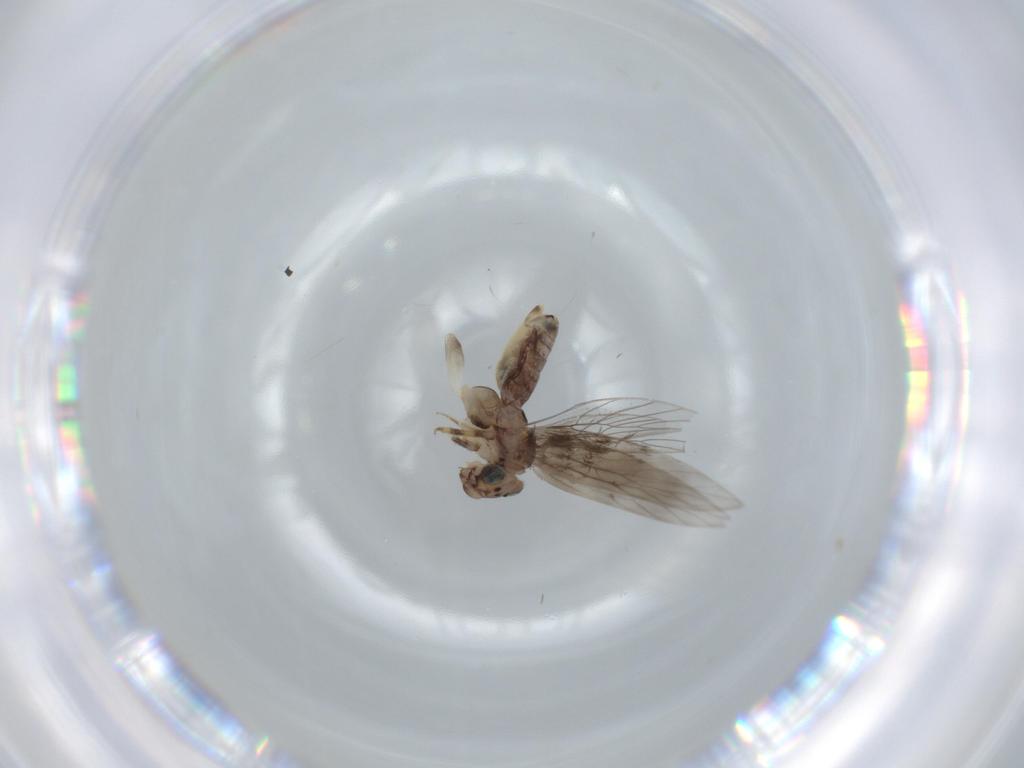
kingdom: Animalia
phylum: Arthropoda
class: Insecta
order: Psocodea
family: Lepidopsocidae
